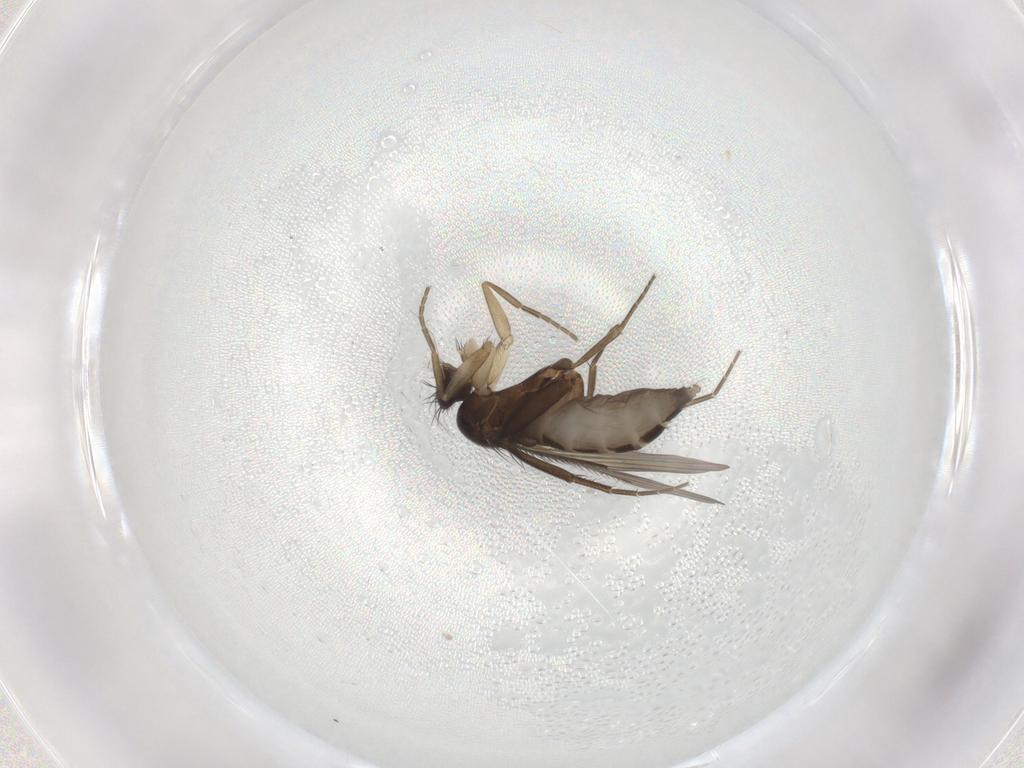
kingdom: Animalia
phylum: Arthropoda
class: Insecta
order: Diptera
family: Phoridae
